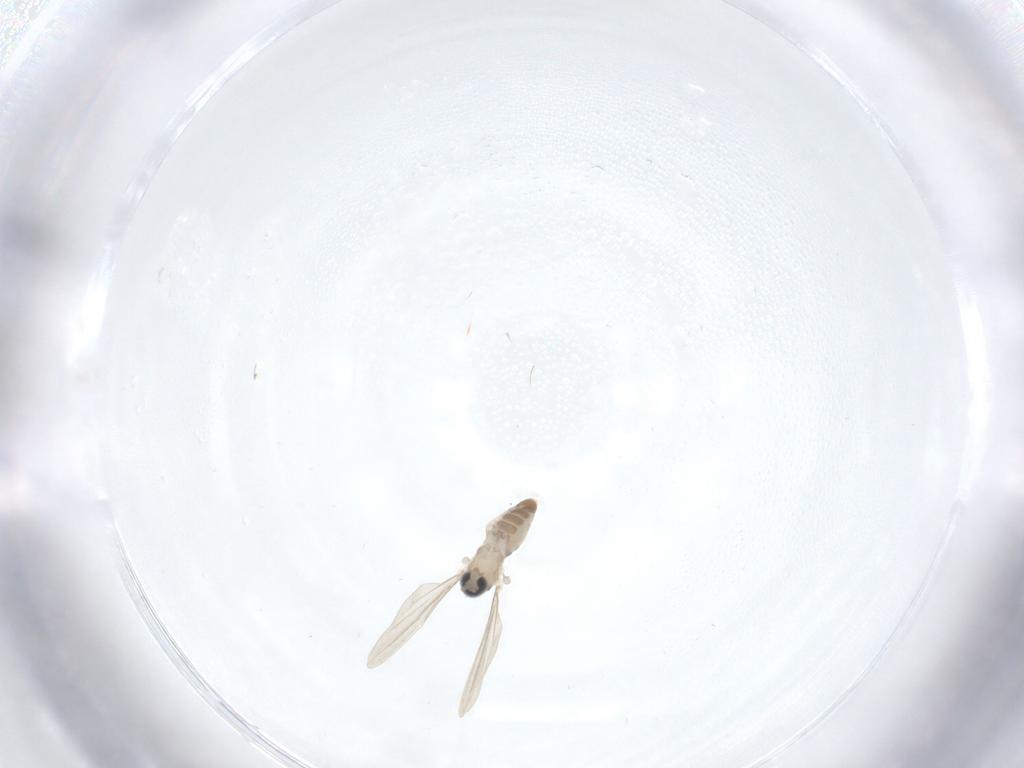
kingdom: Animalia
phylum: Arthropoda
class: Insecta
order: Diptera
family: Cecidomyiidae
